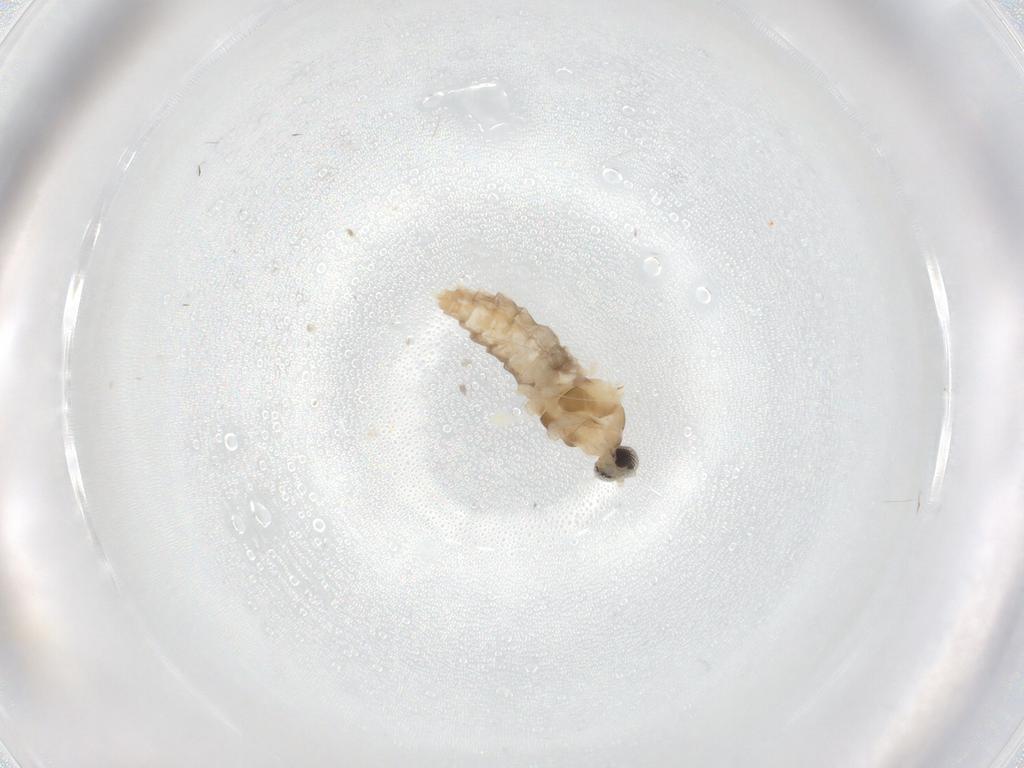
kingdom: Animalia
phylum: Arthropoda
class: Insecta
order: Diptera
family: Cecidomyiidae
